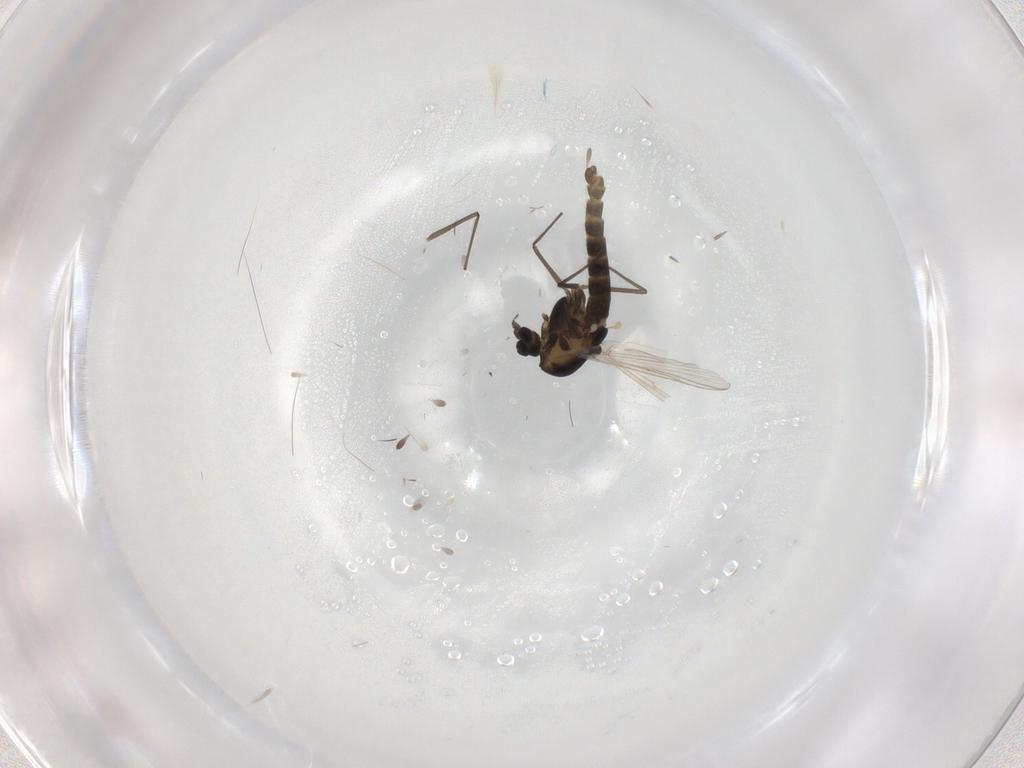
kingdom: Animalia
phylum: Arthropoda
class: Insecta
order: Diptera
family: Chironomidae
